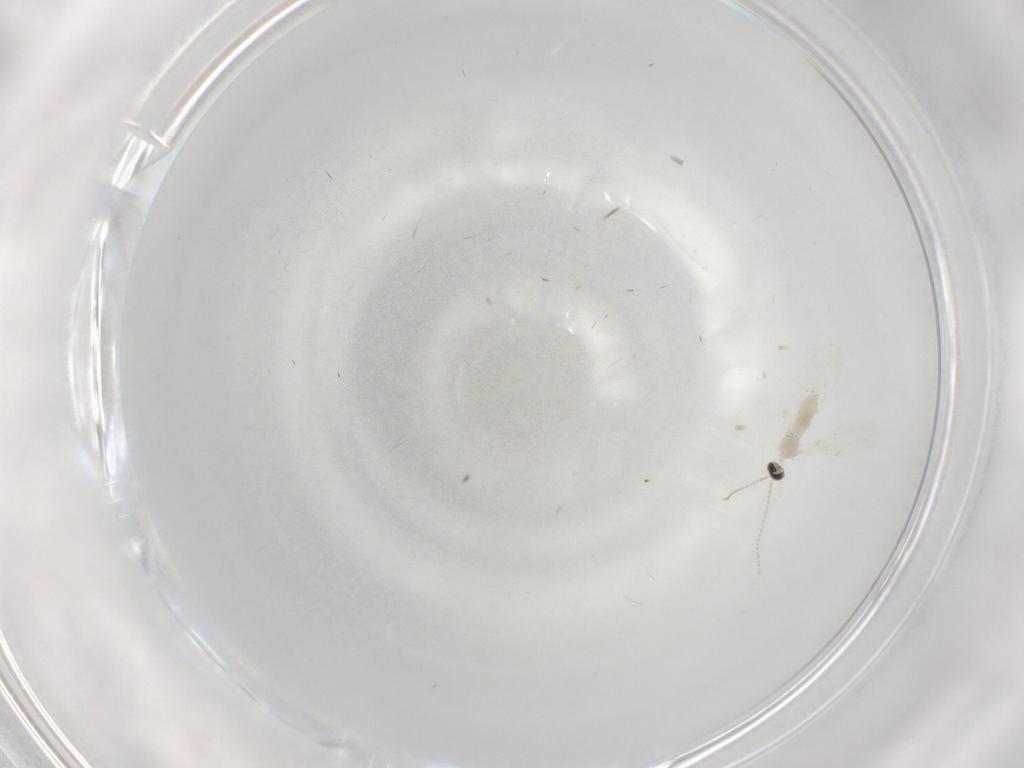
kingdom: Animalia
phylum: Arthropoda
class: Insecta
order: Diptera
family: Cecidomyiidae
